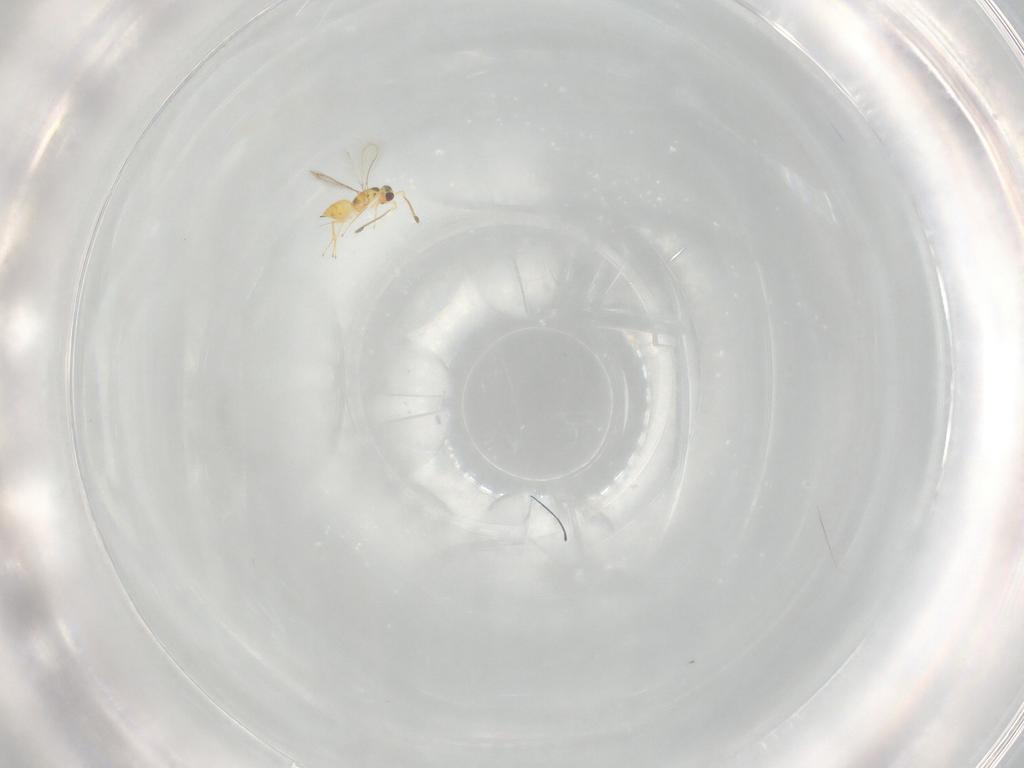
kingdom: Animalia
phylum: Arthropoda
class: Insecta
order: Hymenoptera
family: Mymaridae
